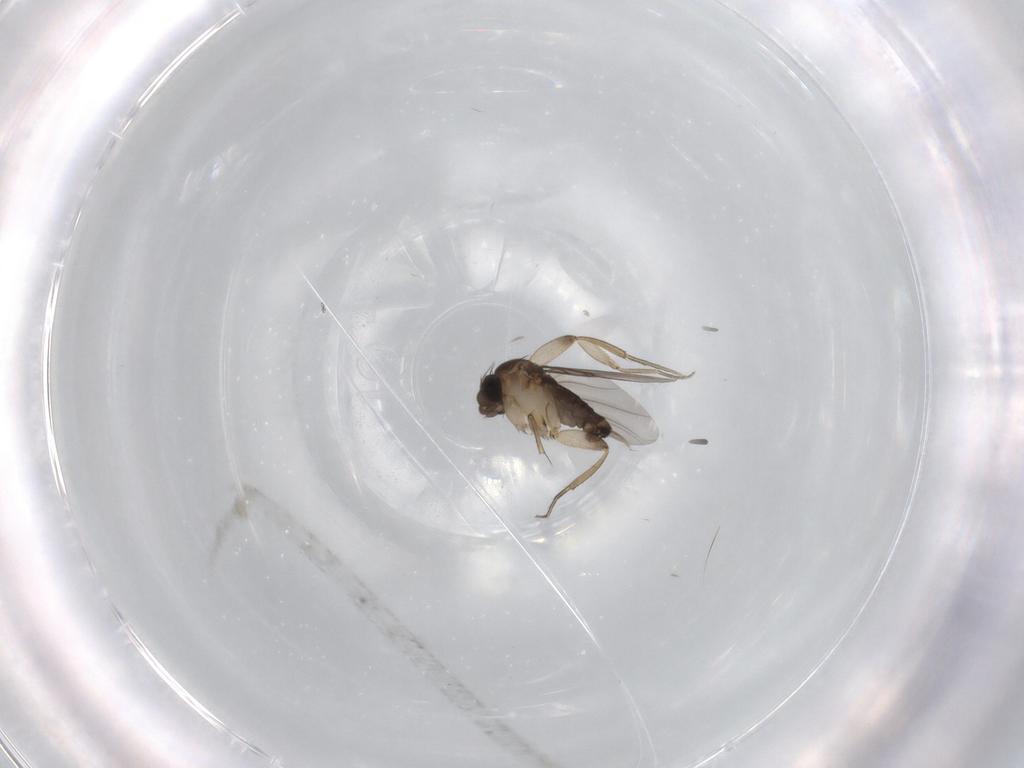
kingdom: Animalia
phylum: Arthropoda
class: Insecta
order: Diptera
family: Phoridae
